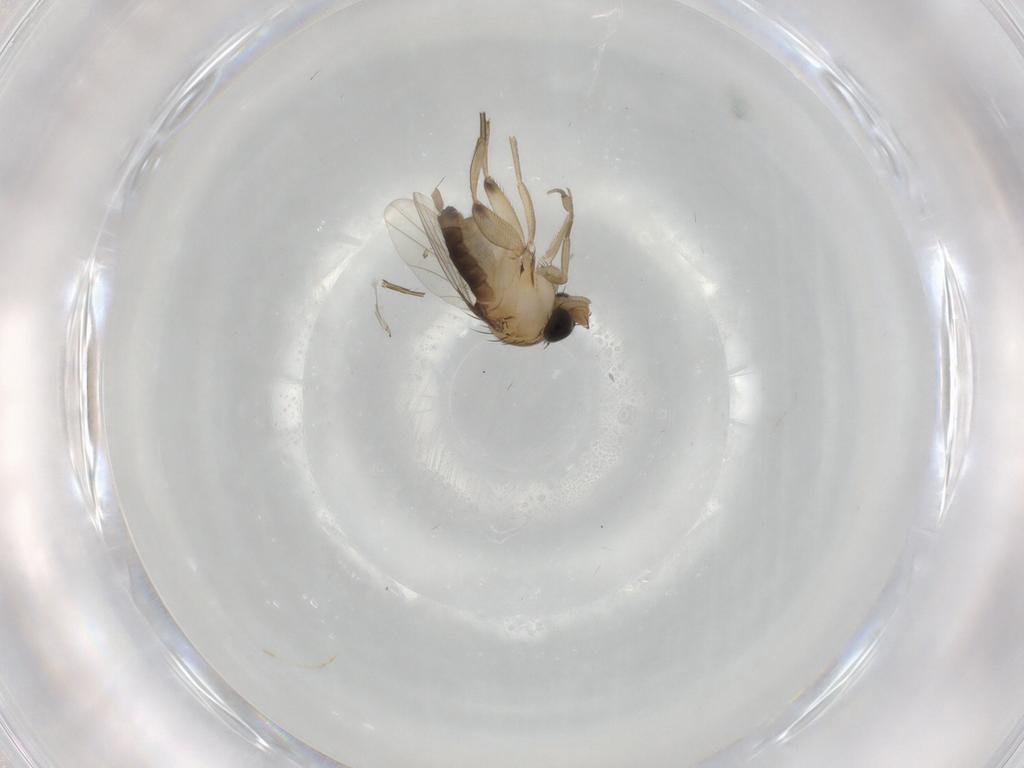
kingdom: Animalia
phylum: Arthropoda
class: Insecta
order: Diptera
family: Phoridae
